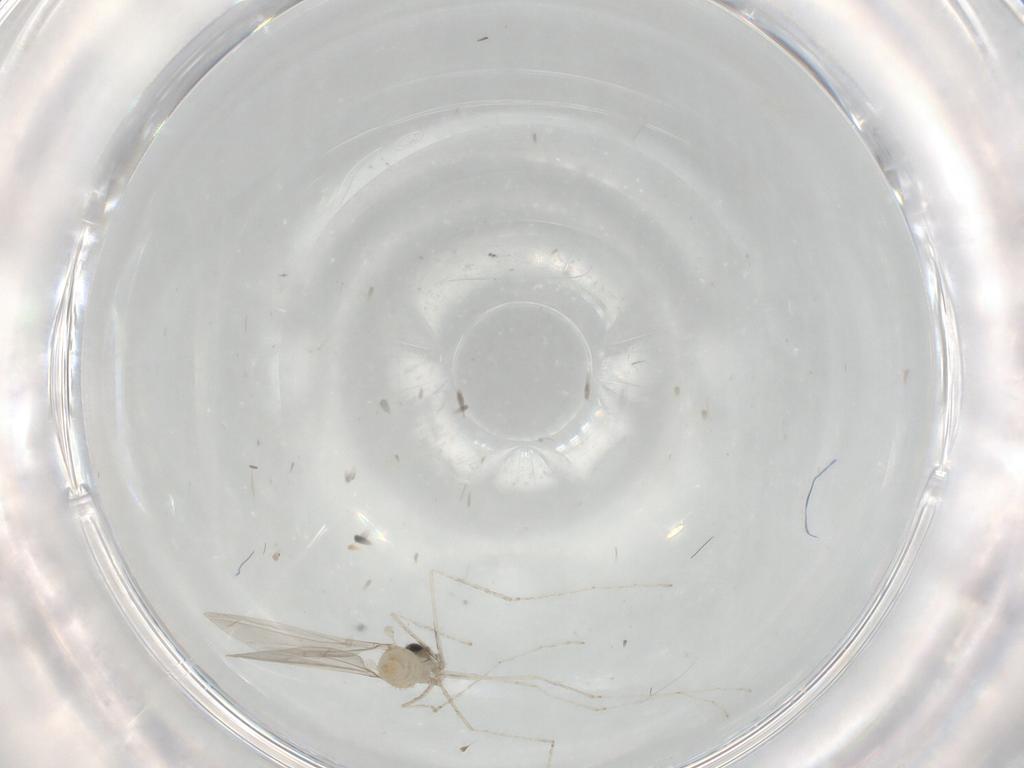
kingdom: Animalia
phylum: Arthropoda
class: Insecta
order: Diptera
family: Cecidomyiidae
